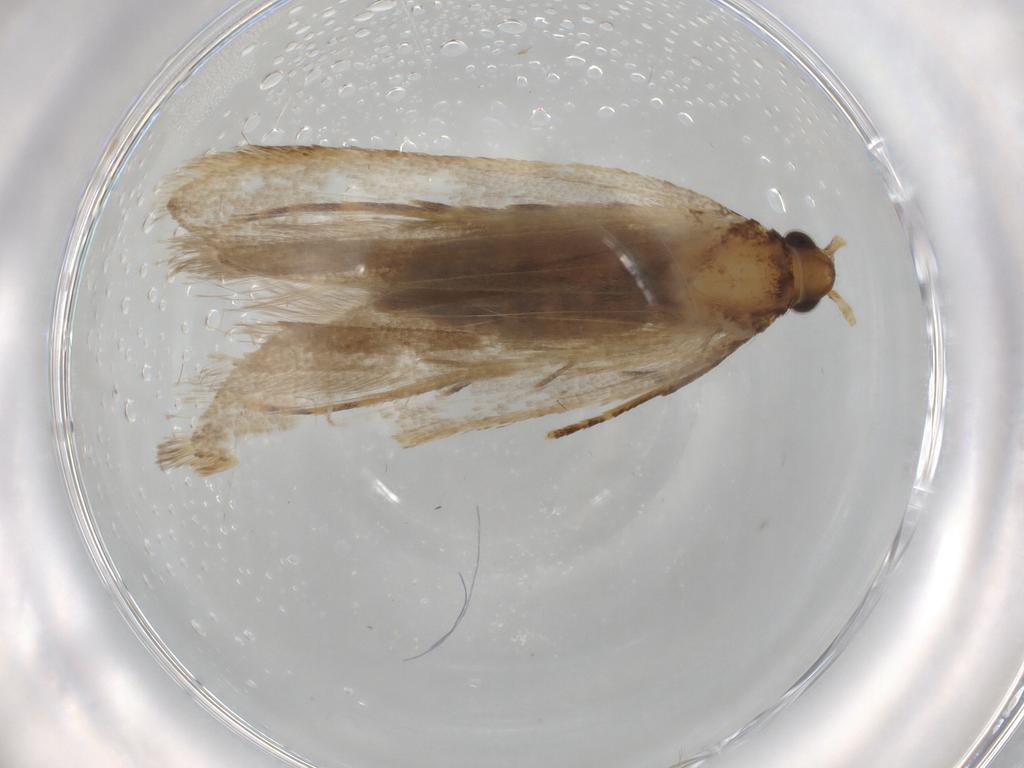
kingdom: Animalia
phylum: Arthropoda
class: Insecta
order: Lepidoptera
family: Lecithoceridae
